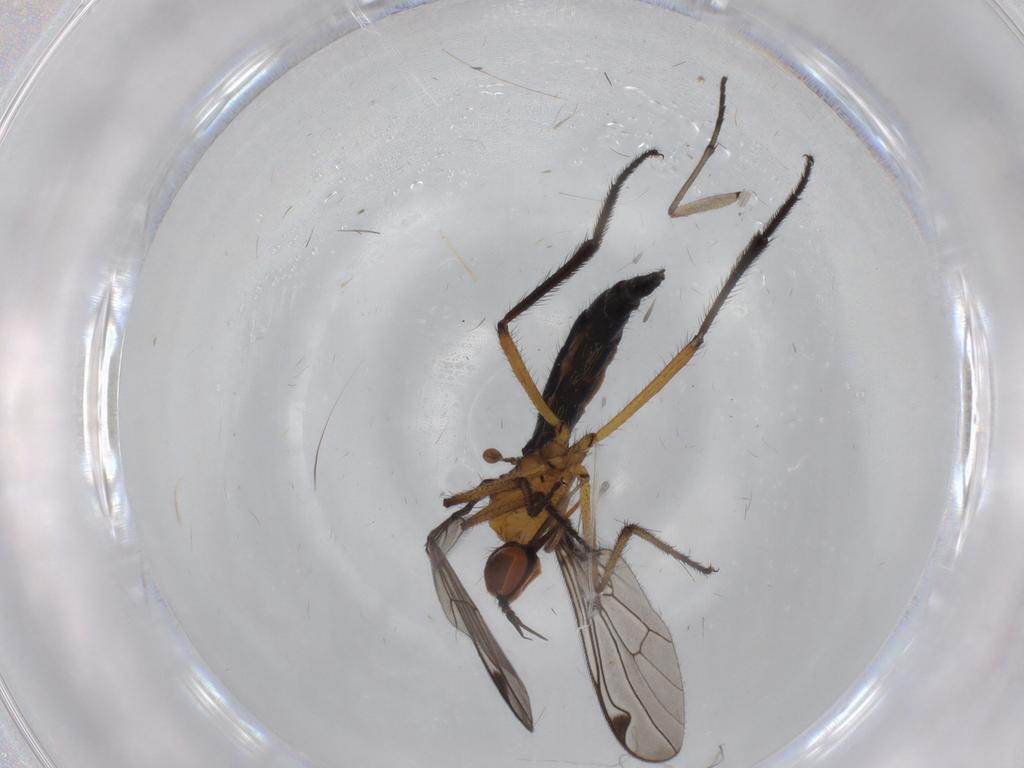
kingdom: Animalia
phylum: Arthropoda
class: Insecta
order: Diptera
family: Empididae
